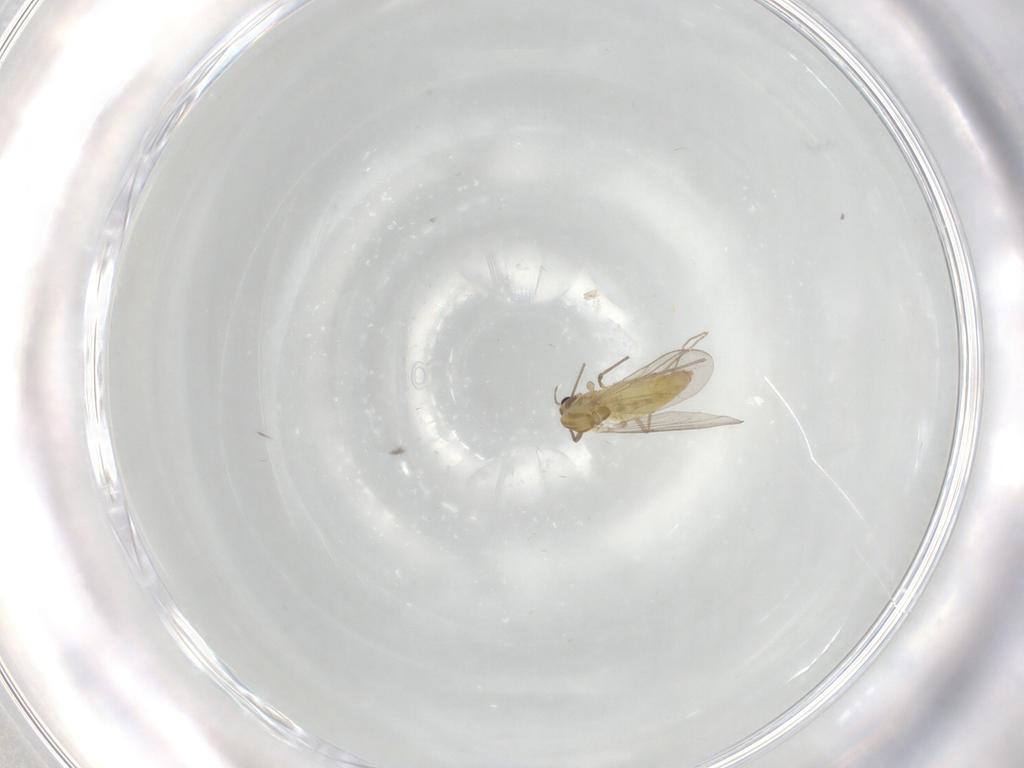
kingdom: Animalia
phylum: Arthropoda
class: Insecta
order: Diptera
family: Chironomidae
